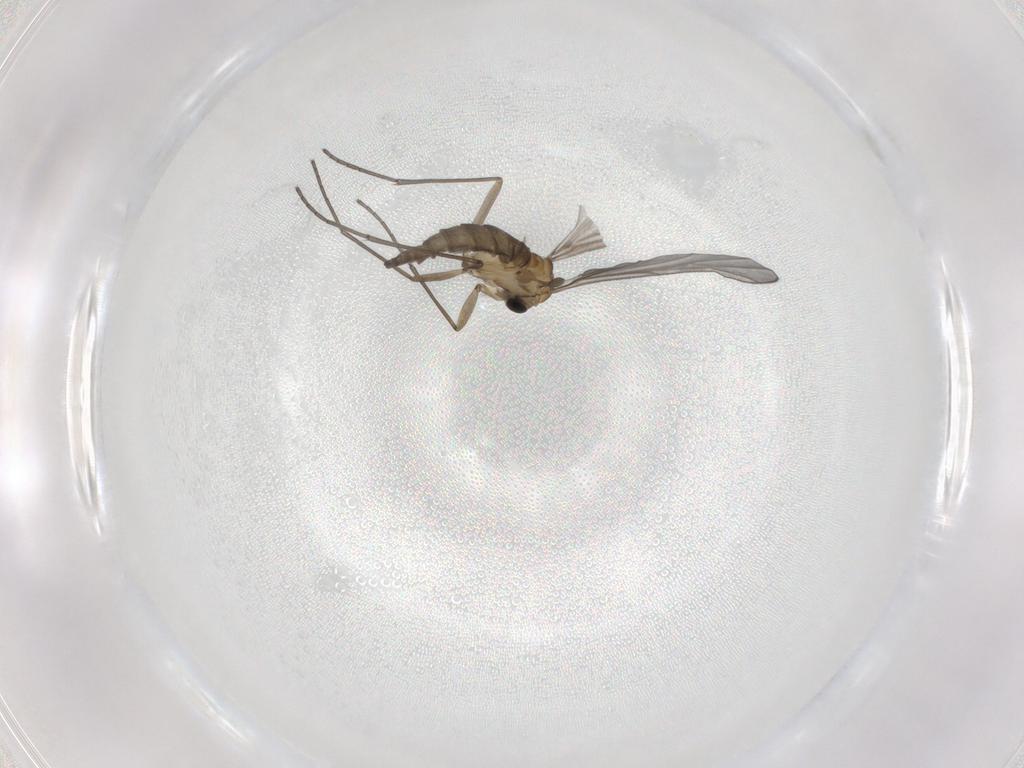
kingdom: Animalia
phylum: Arthropoda
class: Insecta
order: Diptera
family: Sciaridae
